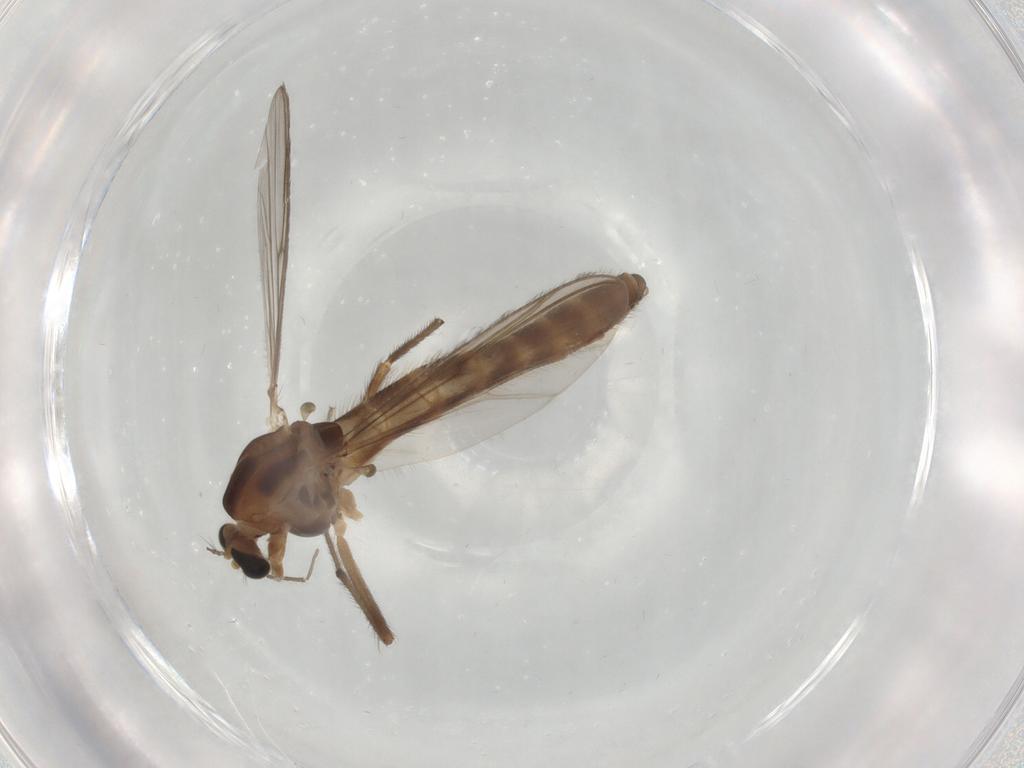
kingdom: Animalia
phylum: Arthropoda
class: Insecta
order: Diptera
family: Chironomidae
